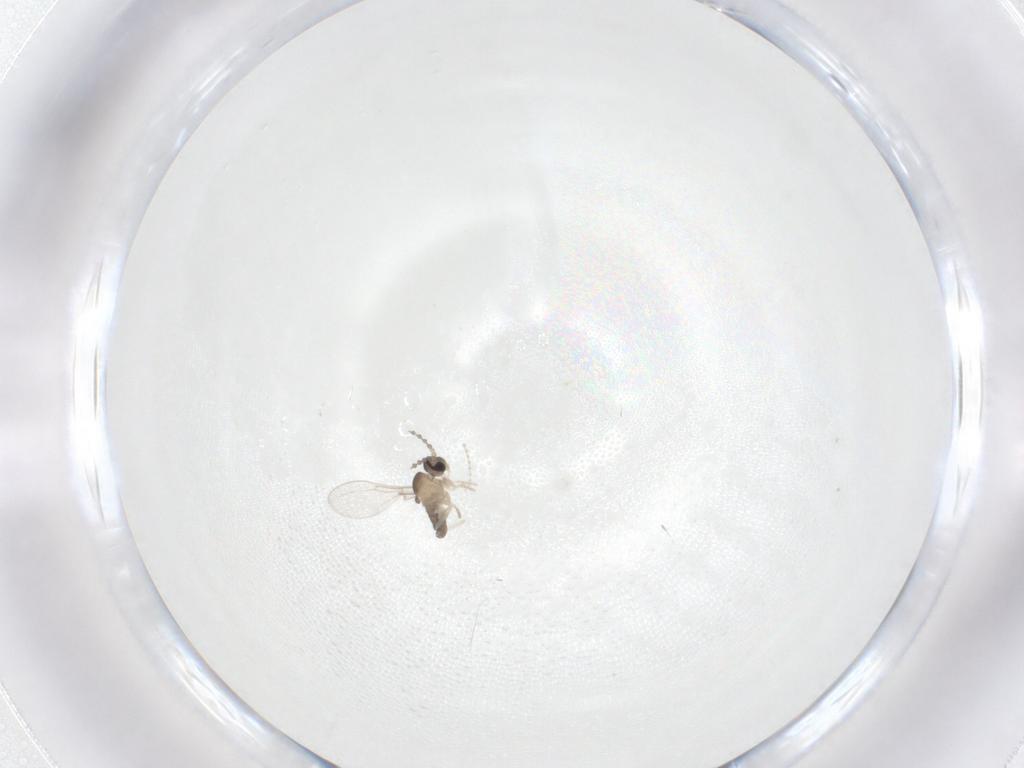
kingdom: Animalia
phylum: Arthropoda
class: Insecta
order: Diptera
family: Cecidomyiidae
